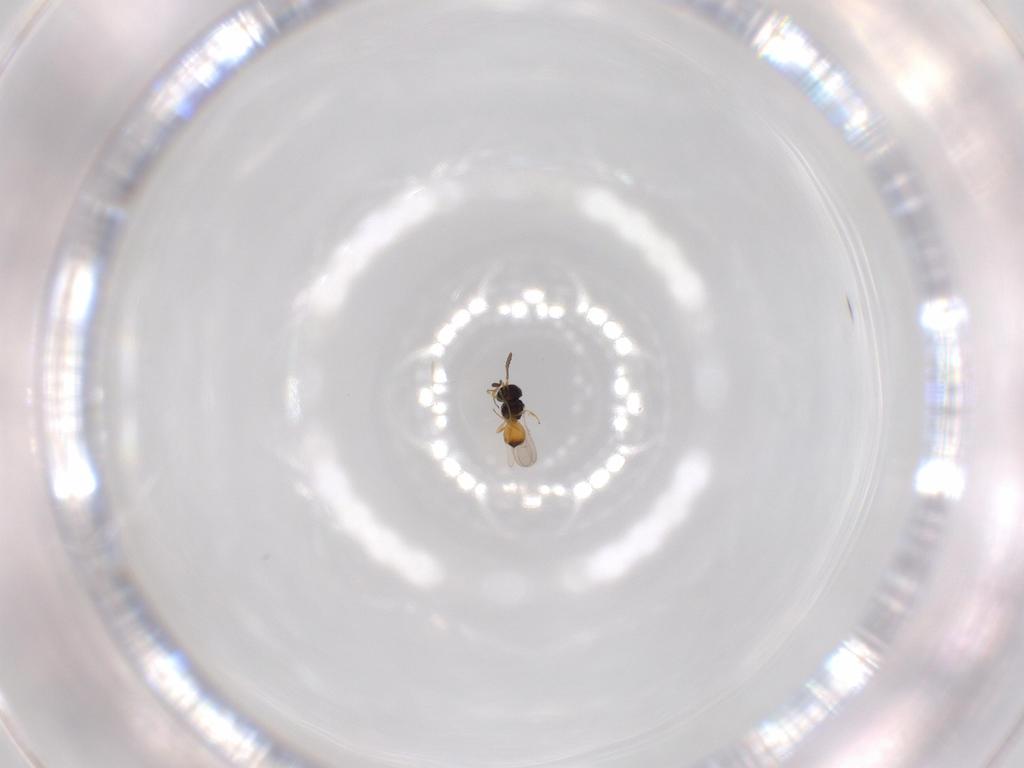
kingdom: Animalia
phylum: Arthropoda
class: Insecta
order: Hymenoptera
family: Scelionidae
